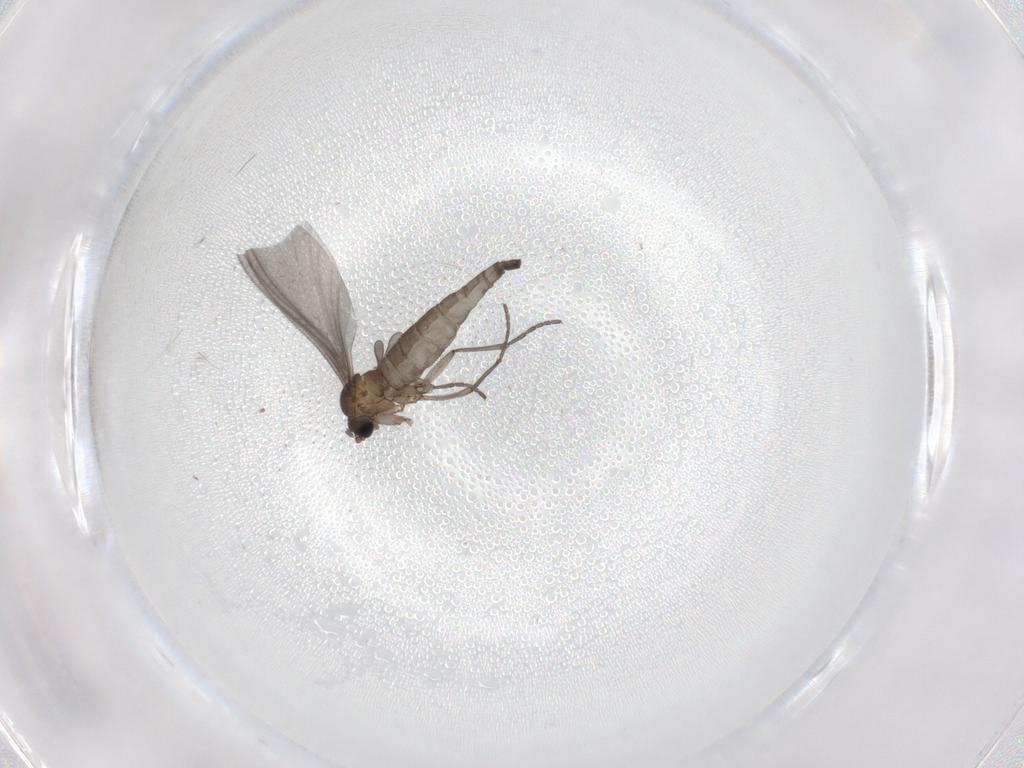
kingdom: Animalia
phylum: Arthropoda
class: Insecta
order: Diptera
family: Sciaridae
